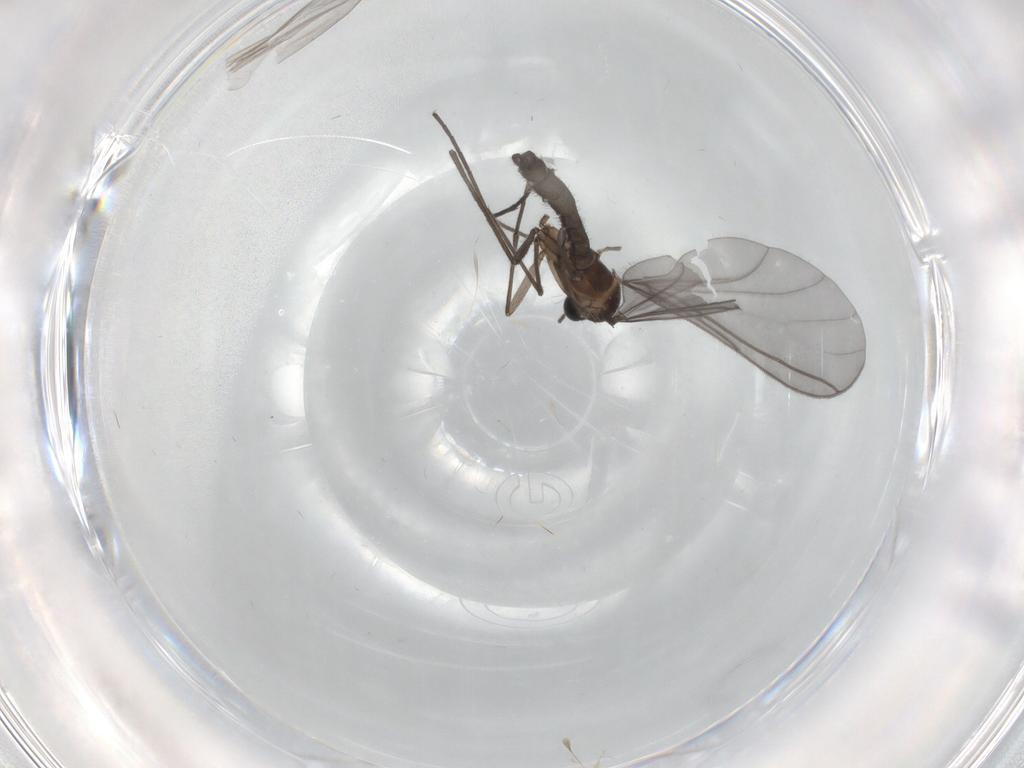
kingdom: Animalia
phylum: Arthropoda
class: Insecta
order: Diptera
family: Sciaridae
